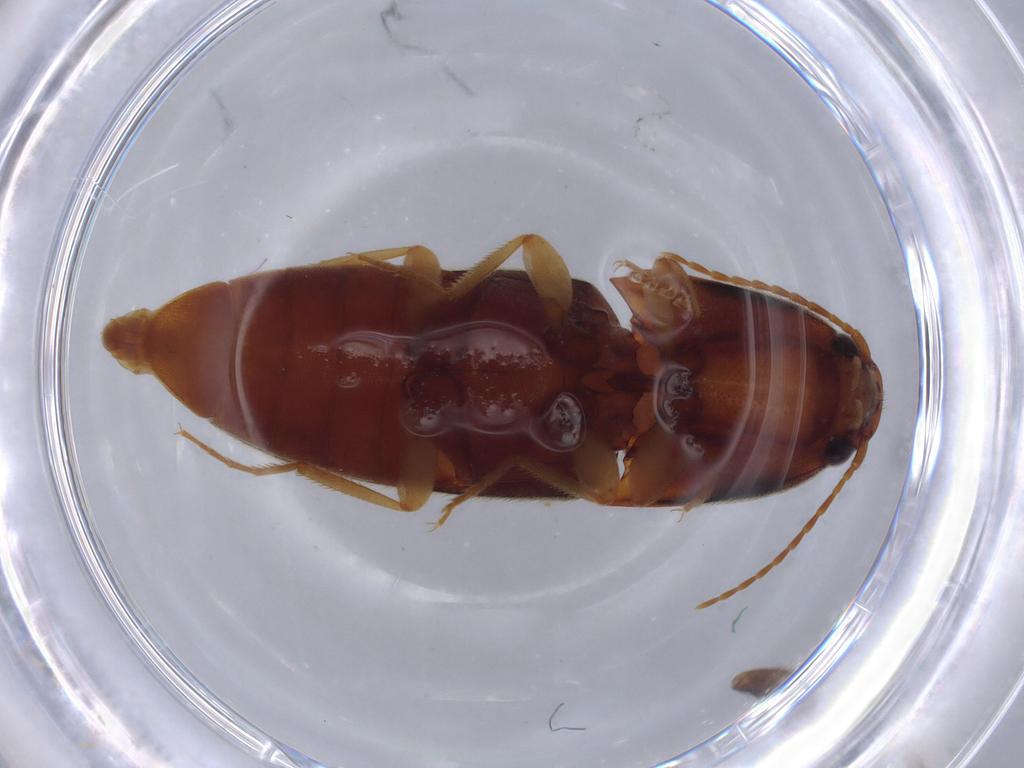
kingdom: Animalia
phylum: Arthropoda
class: Insecta
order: Coleoptera
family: Elateridae
